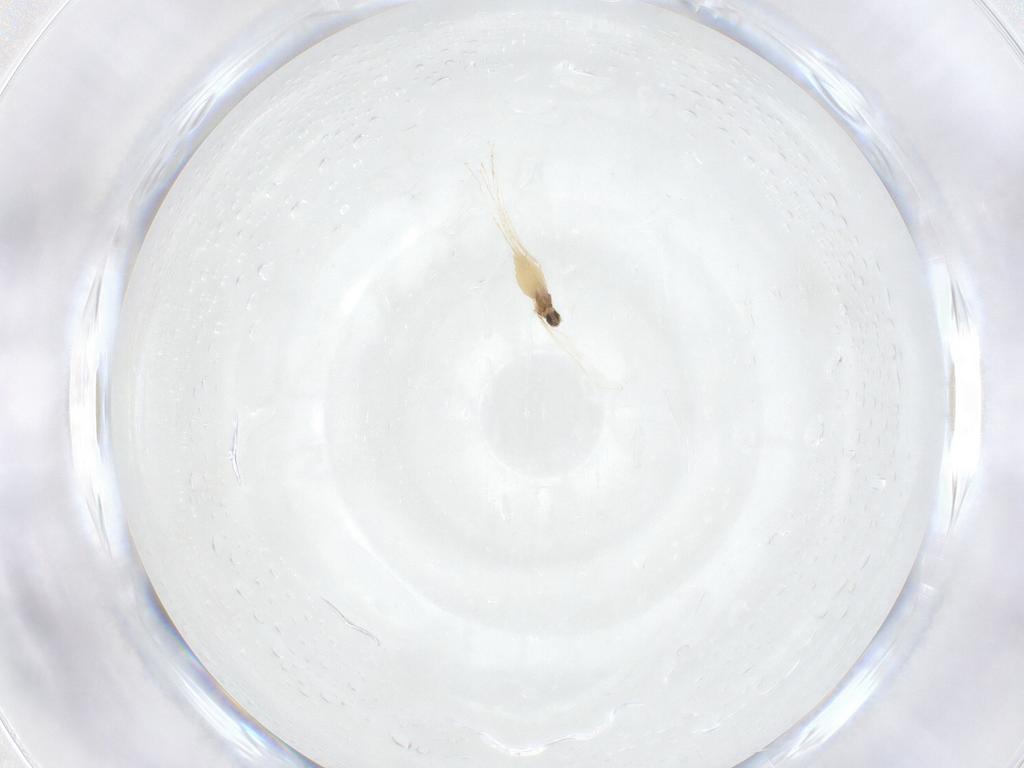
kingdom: Animalia
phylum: Arthropoda
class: Insecta
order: Diptera
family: Cecidomyiidae
